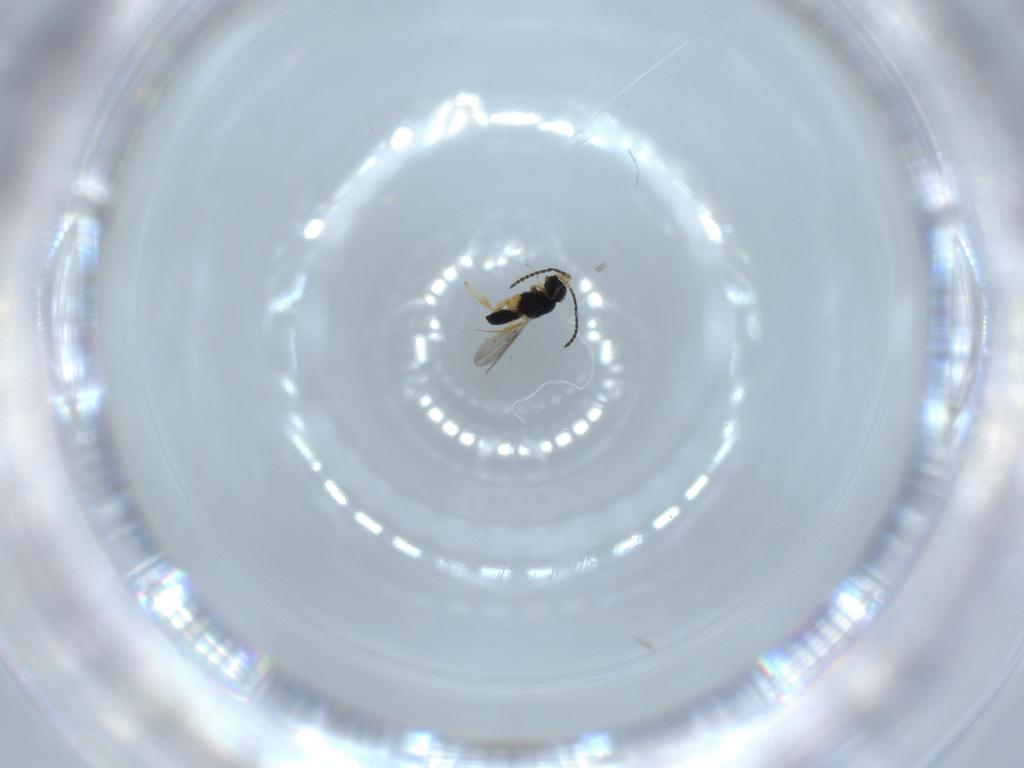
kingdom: Animalia
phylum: Arthropoda
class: Insecta
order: Hymenoptera
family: Scelionidae
